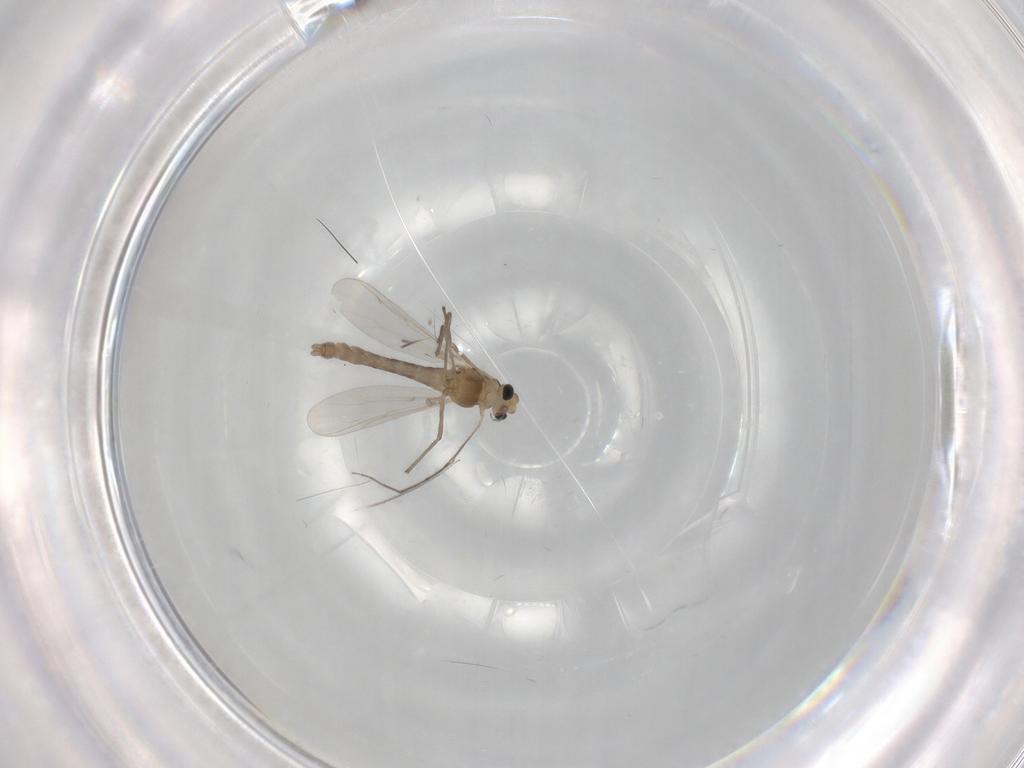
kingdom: Animalia
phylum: Arthropoda
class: Insecta
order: Diptera
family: Chironomidae
